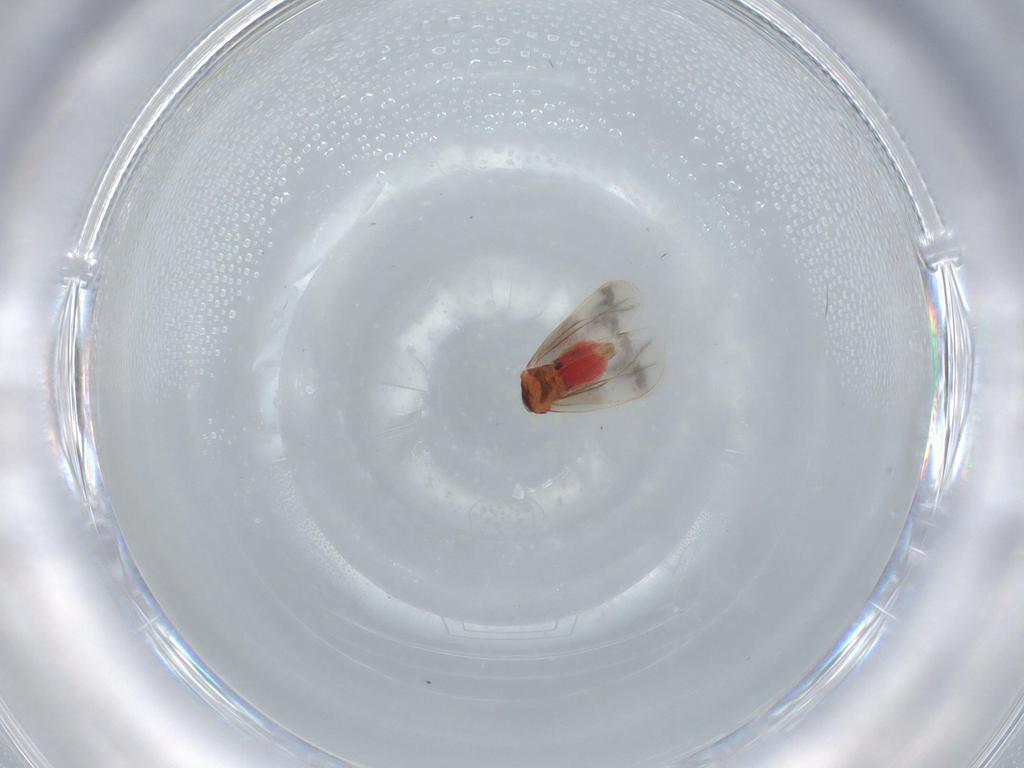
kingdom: Animalia
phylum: Arthropoda
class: Insecta
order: Hemiptera
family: Aleyrodidae
